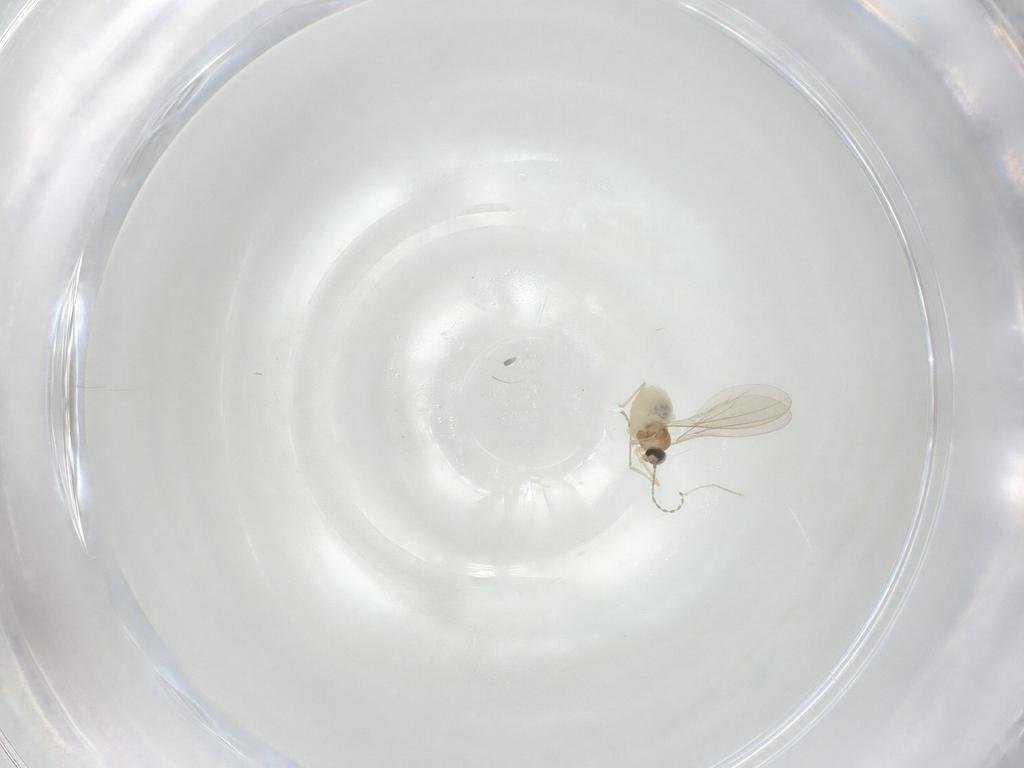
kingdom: Animalia
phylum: Arthropoda
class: Insecta
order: Diptera
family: Cecidomyiidae
